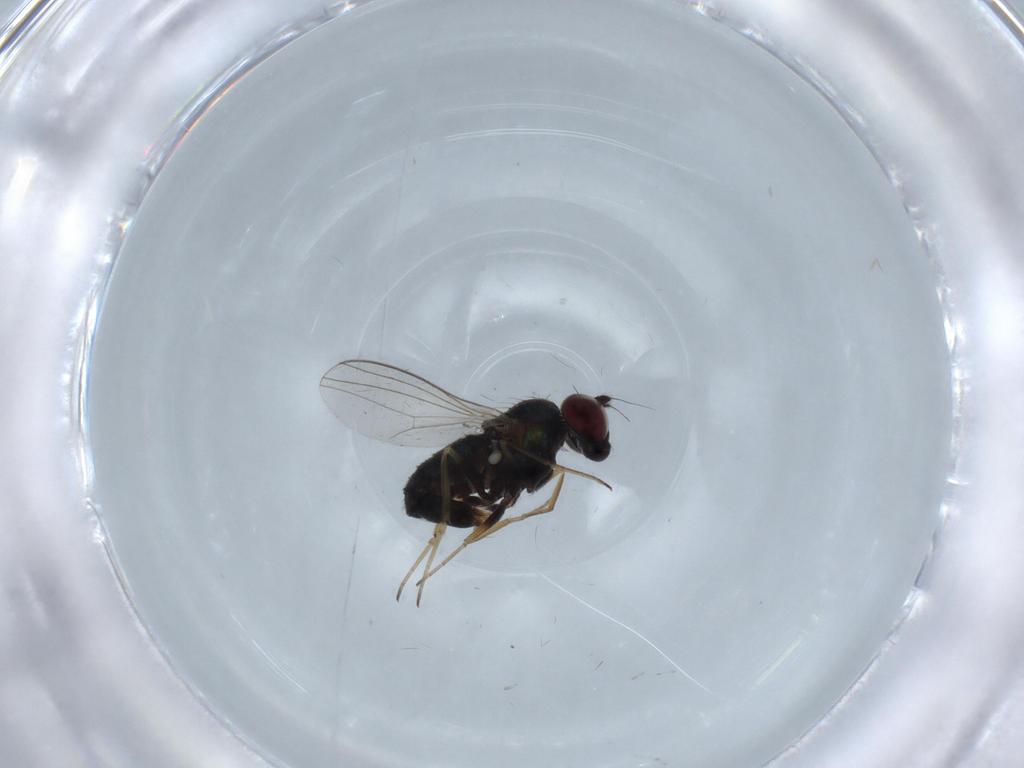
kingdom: Animalia
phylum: Arthropoda
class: Insecta
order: Diptera
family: Dolichopodidae
